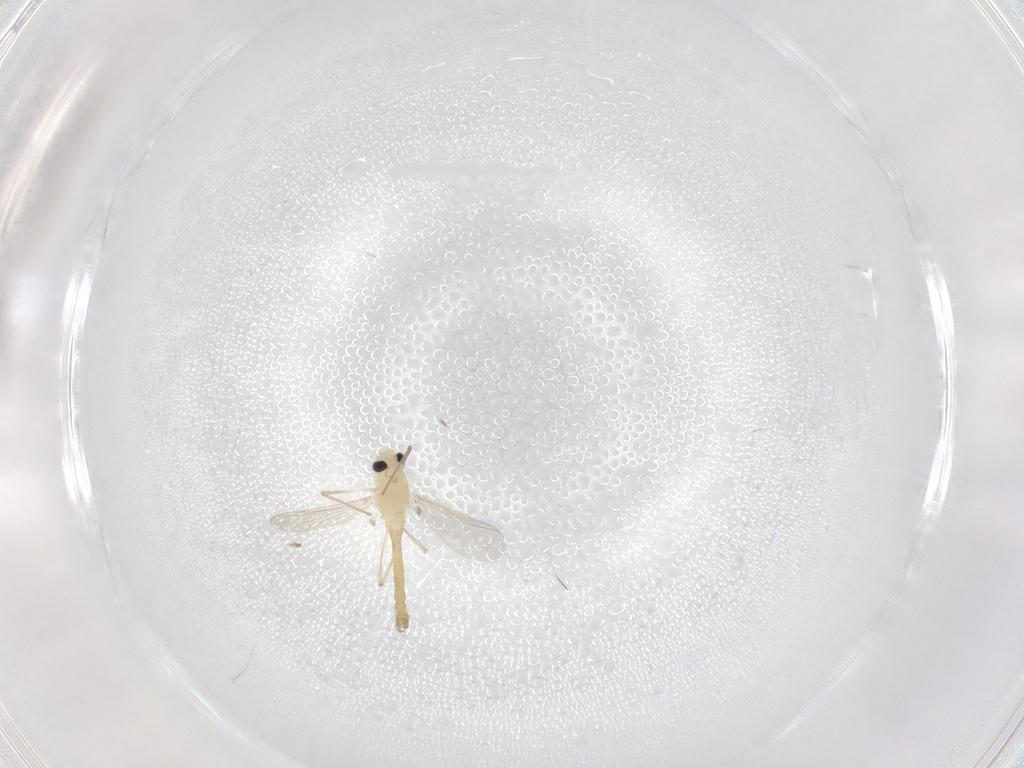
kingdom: Animalia
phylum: Arthropoda
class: Insecta
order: Diptera
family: Chironomidae
